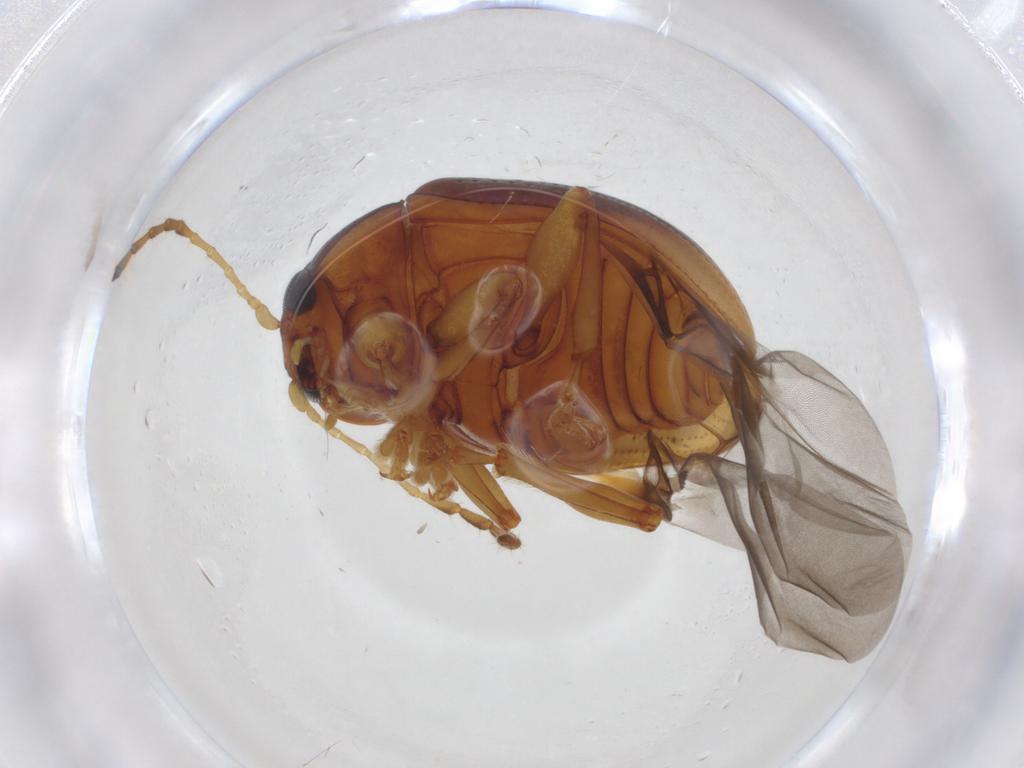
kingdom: Animalia
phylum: Arthropoda
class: Insecta
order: Coleoptera
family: Chrysomelidae
